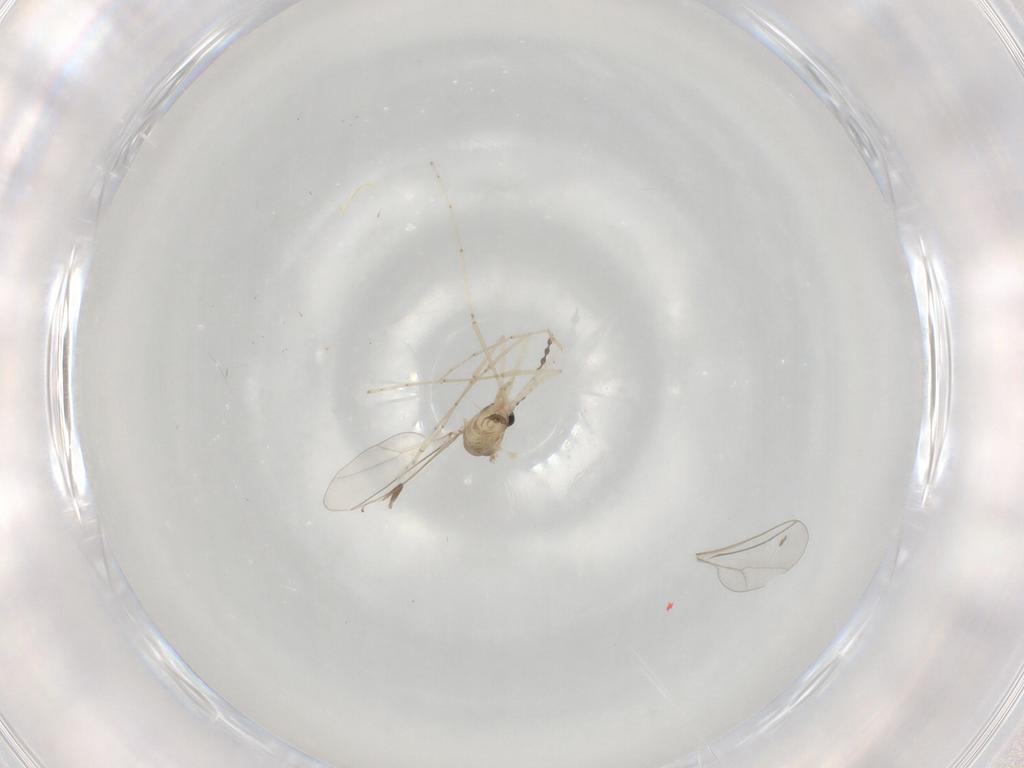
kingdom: Animalia
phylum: Arthropoda
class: Insecta
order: Diptera
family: Cecidomyiidae
